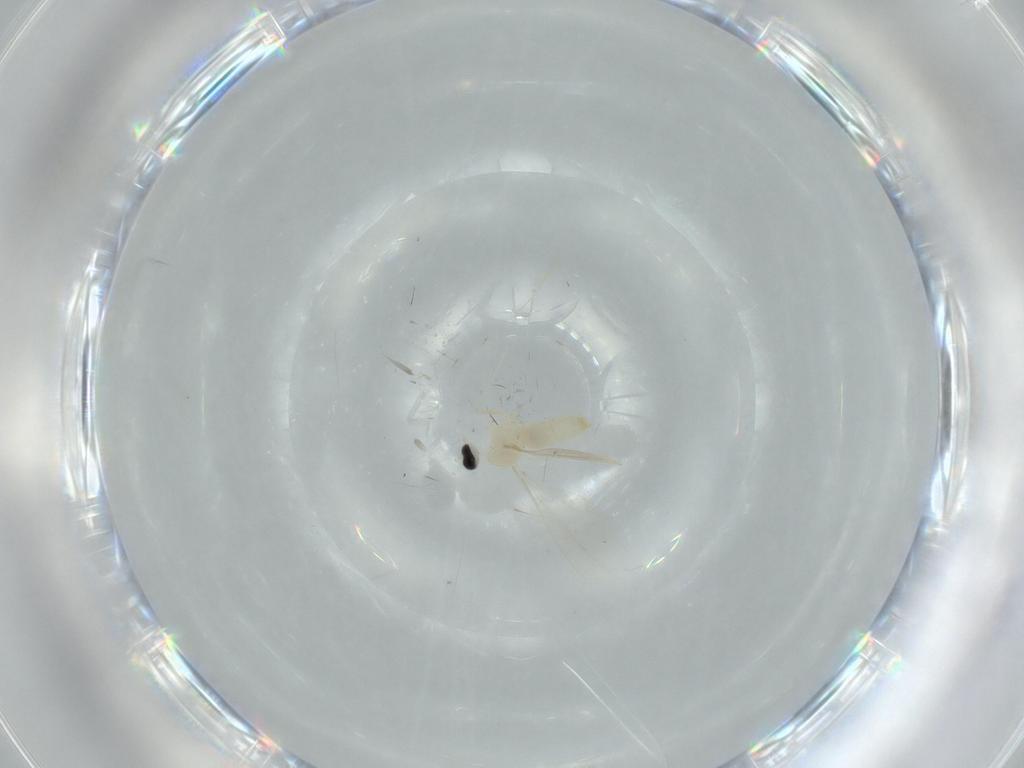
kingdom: Animalia
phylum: Arthropoda
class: Insecta
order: Diptera
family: Cecidomyiidae
